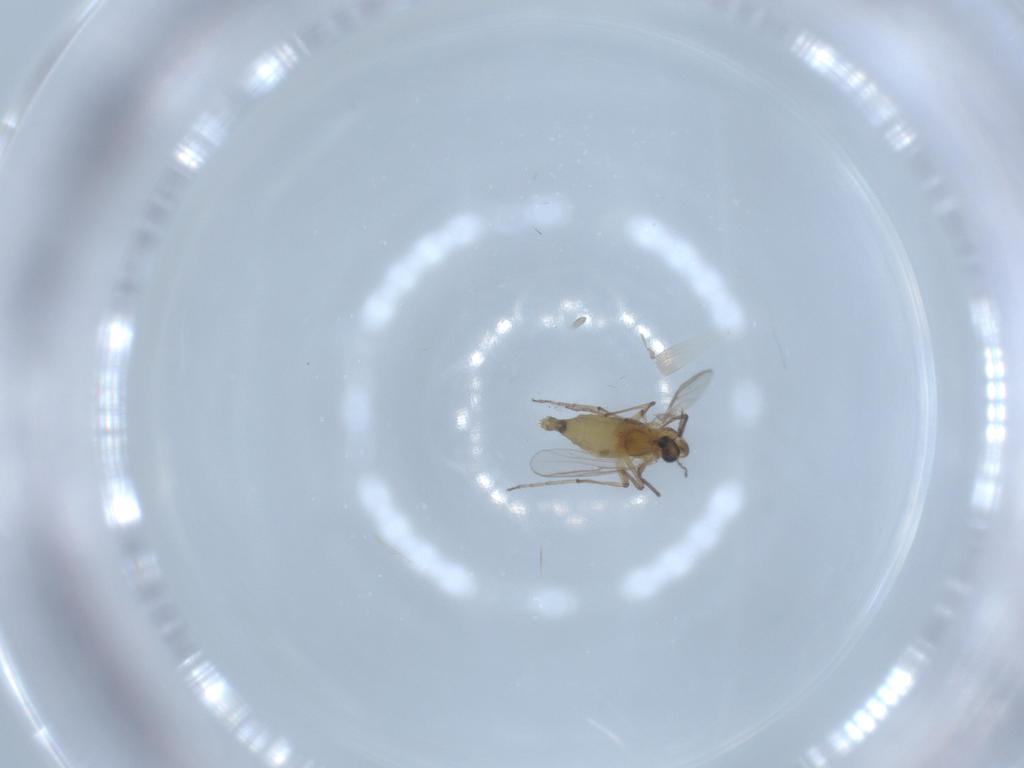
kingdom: Animalia
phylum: Arthropoda
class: Insecta
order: Diptera
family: Chironomidae
